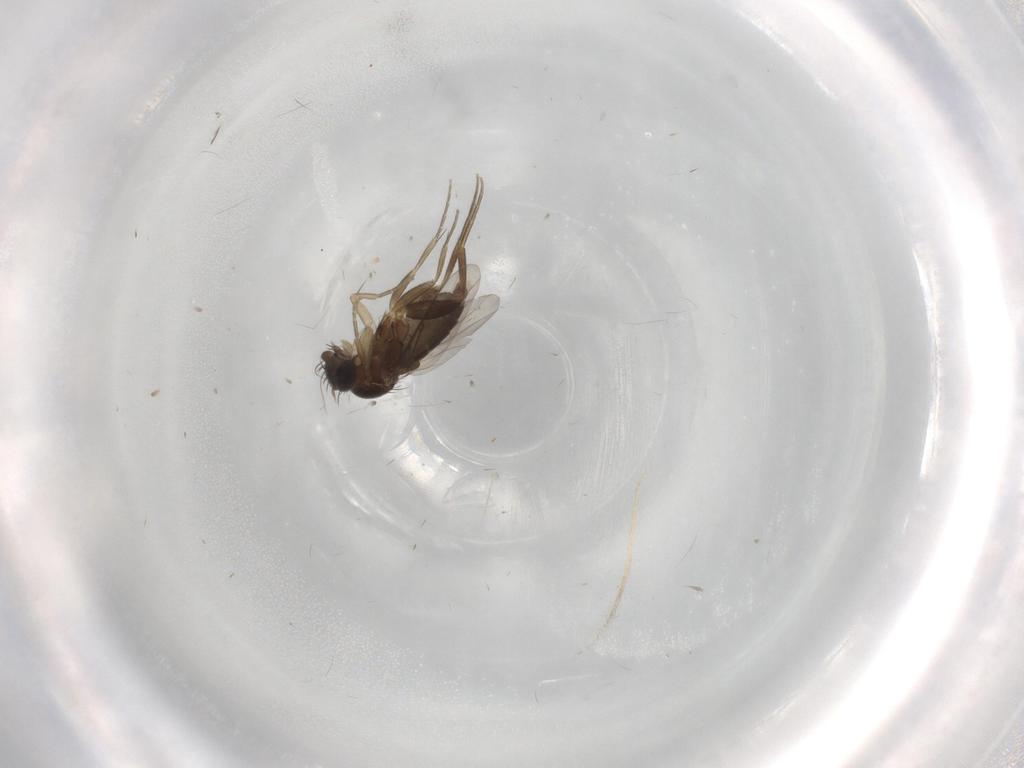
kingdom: Animalia
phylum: Arthropoda
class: Insecta
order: Diptera
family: Phoridae
